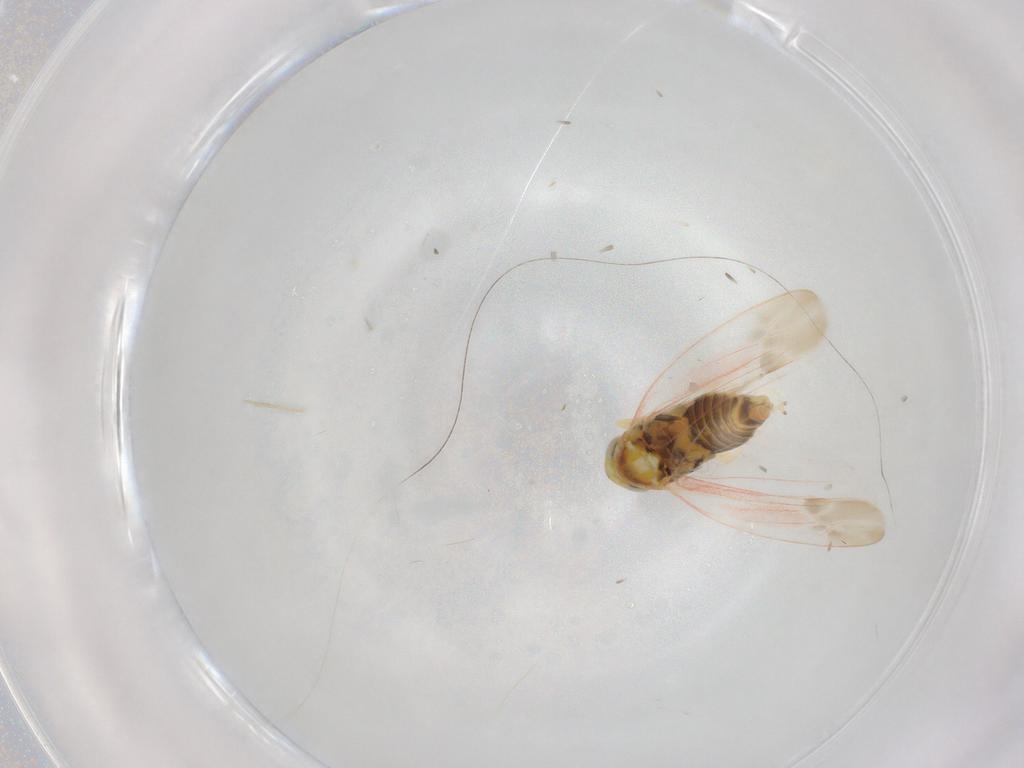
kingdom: Animalia
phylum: Arthropoda
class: Insecta
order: Hemiptera
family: Cicadellidae
